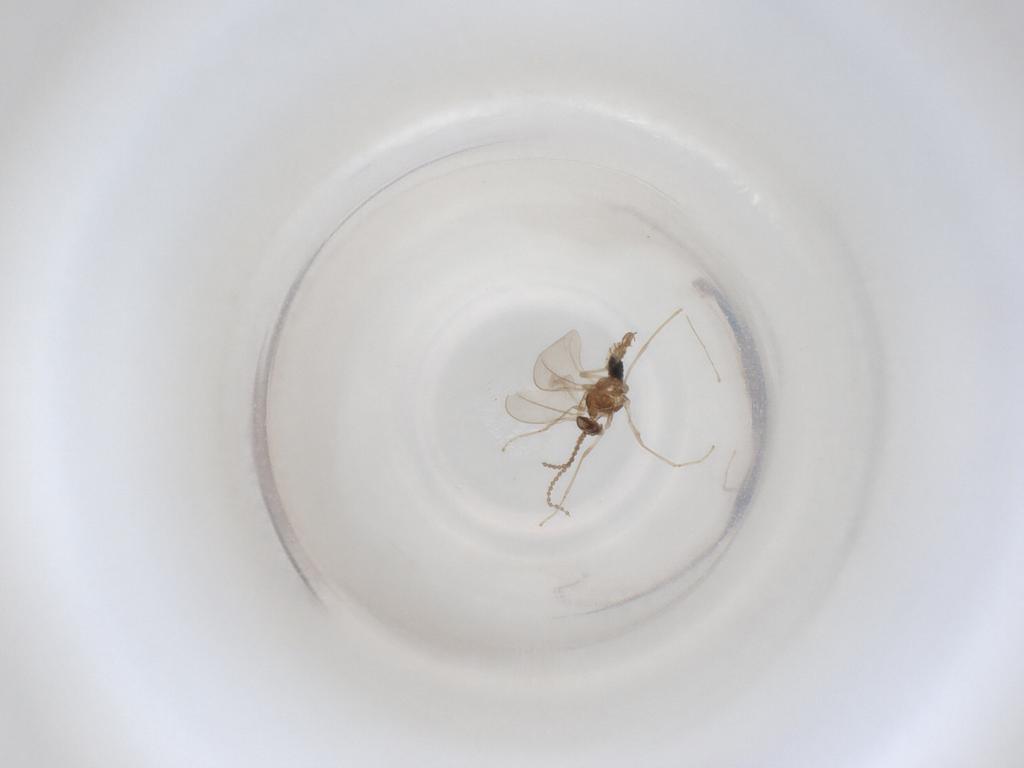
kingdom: Animalia
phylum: Arthropoda
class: Insecta
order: Diptera
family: Cecidomyiidae
